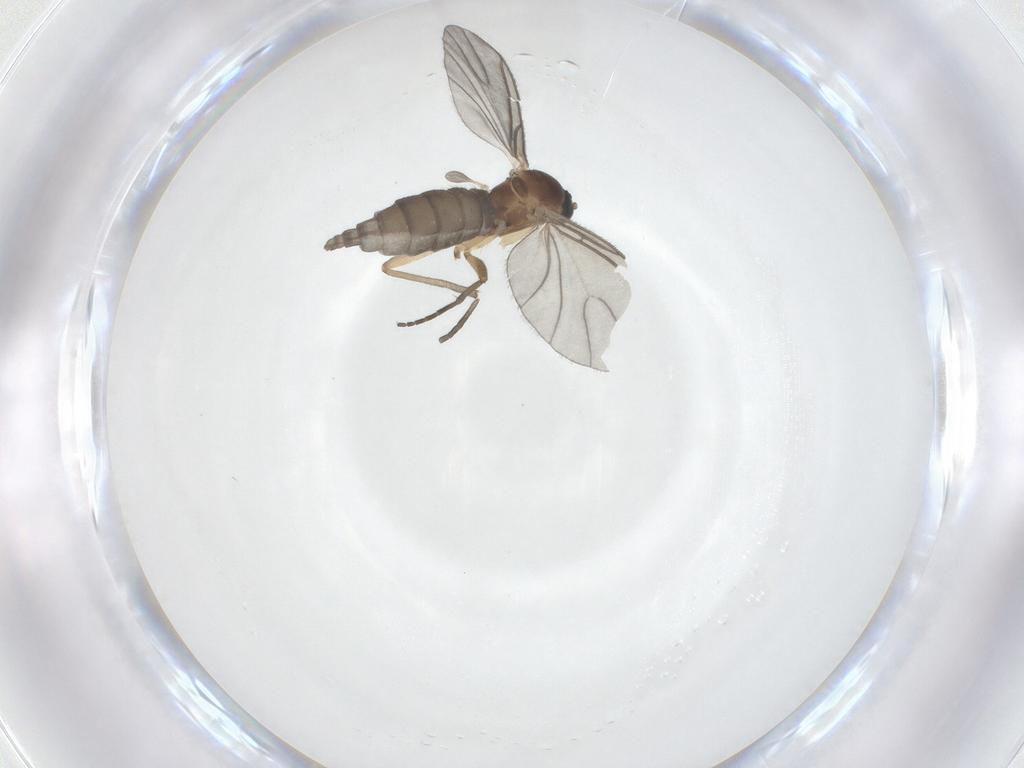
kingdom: Animalia
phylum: Arthropoda
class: Insecta
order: Diptera
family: Sciaridae
